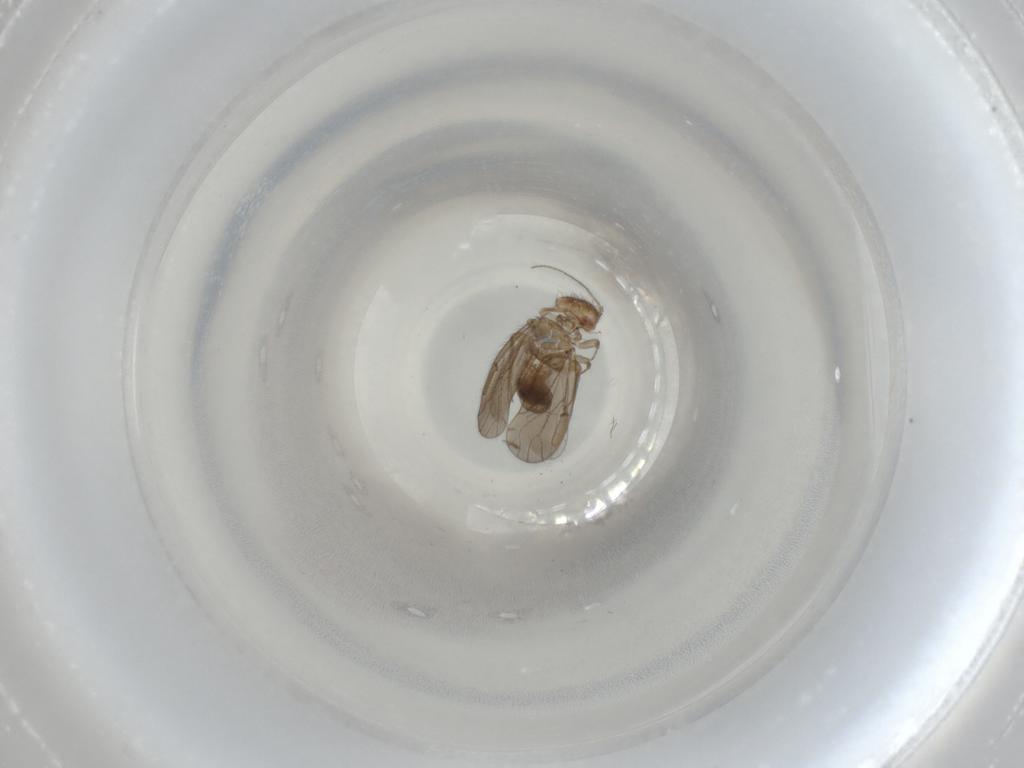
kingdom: Animalia
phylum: Arthropoda
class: Insecta
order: Psocodea
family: Ectopsocidae
